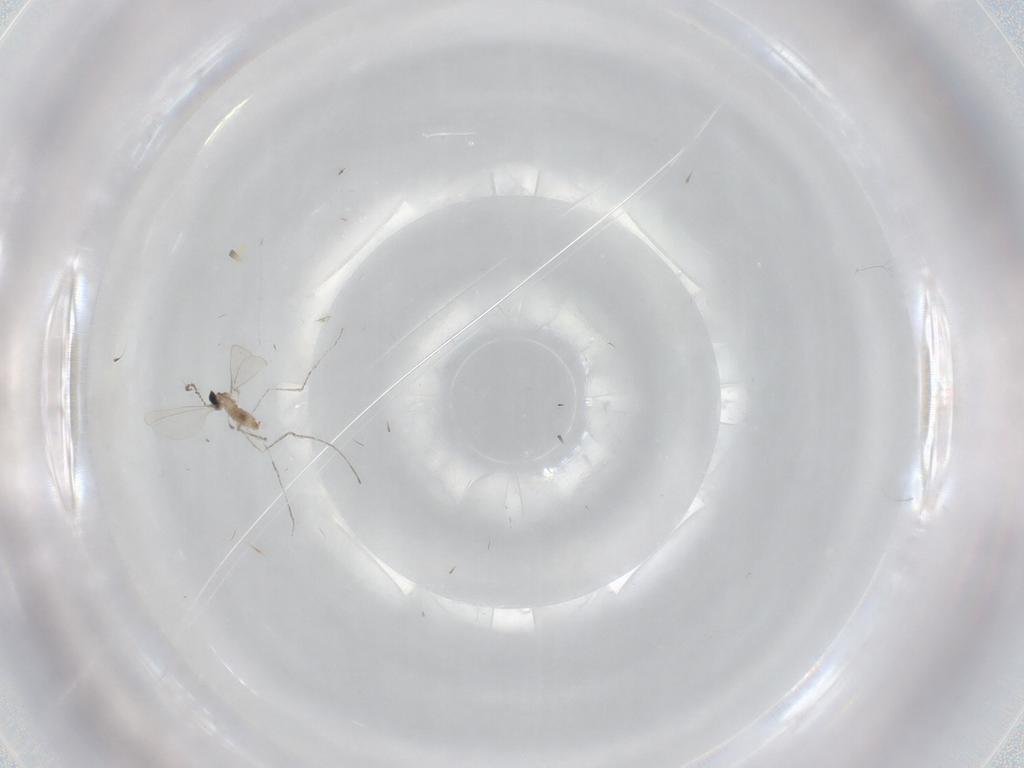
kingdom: Animalia
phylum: Arthropoda
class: Insecta
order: Diptera
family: Cecidomyiidae
